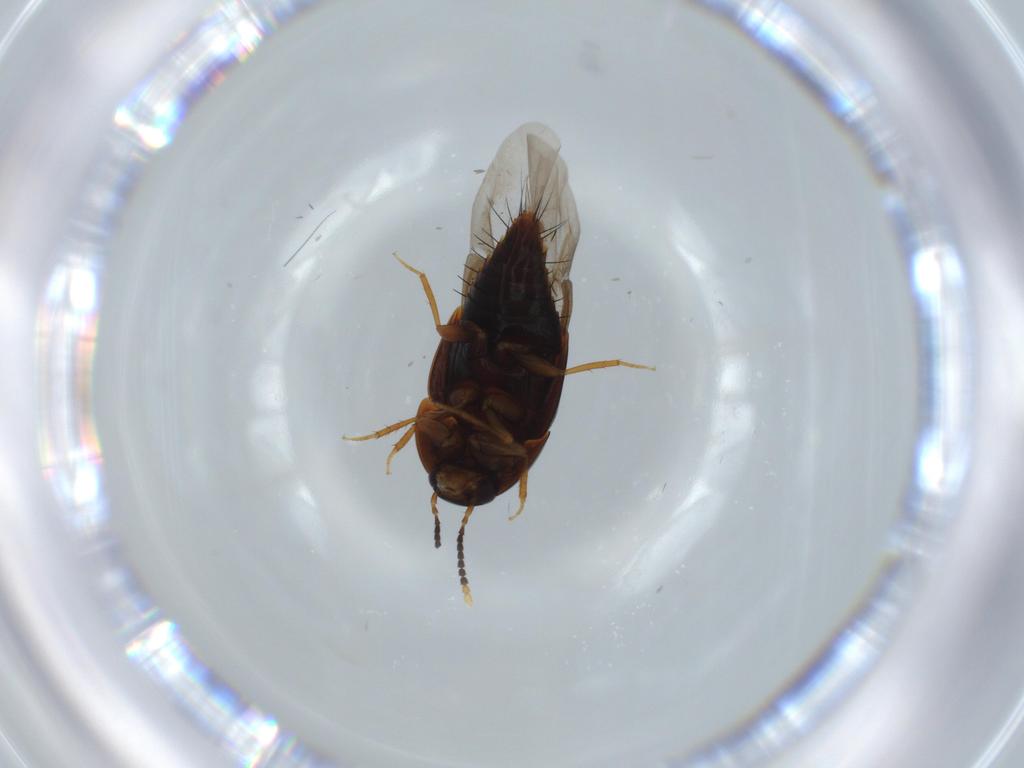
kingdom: Animalia
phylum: Arthropoda
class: Insecta
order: Coleoptera
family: Staphylinidae
